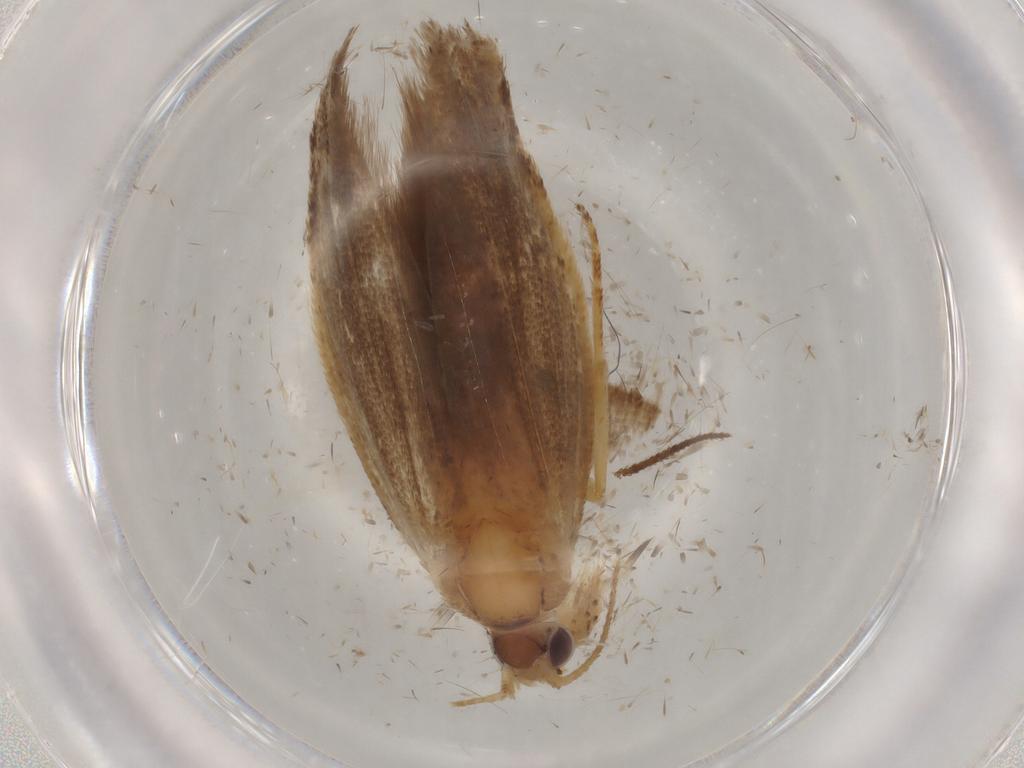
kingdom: Animalia
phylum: Arthropoda
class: Insecta
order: Lepidoptera
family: Gelechiidae
